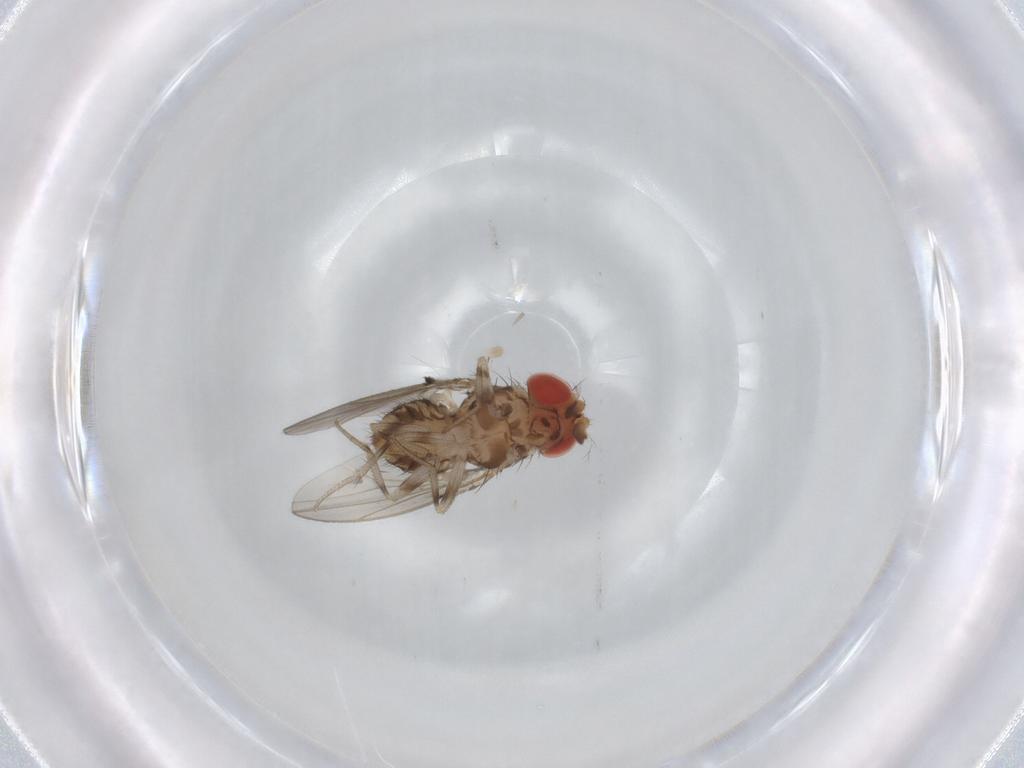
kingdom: Animalia
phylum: Arthropoda
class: Insecta
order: Diptera
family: Drosophilidae
